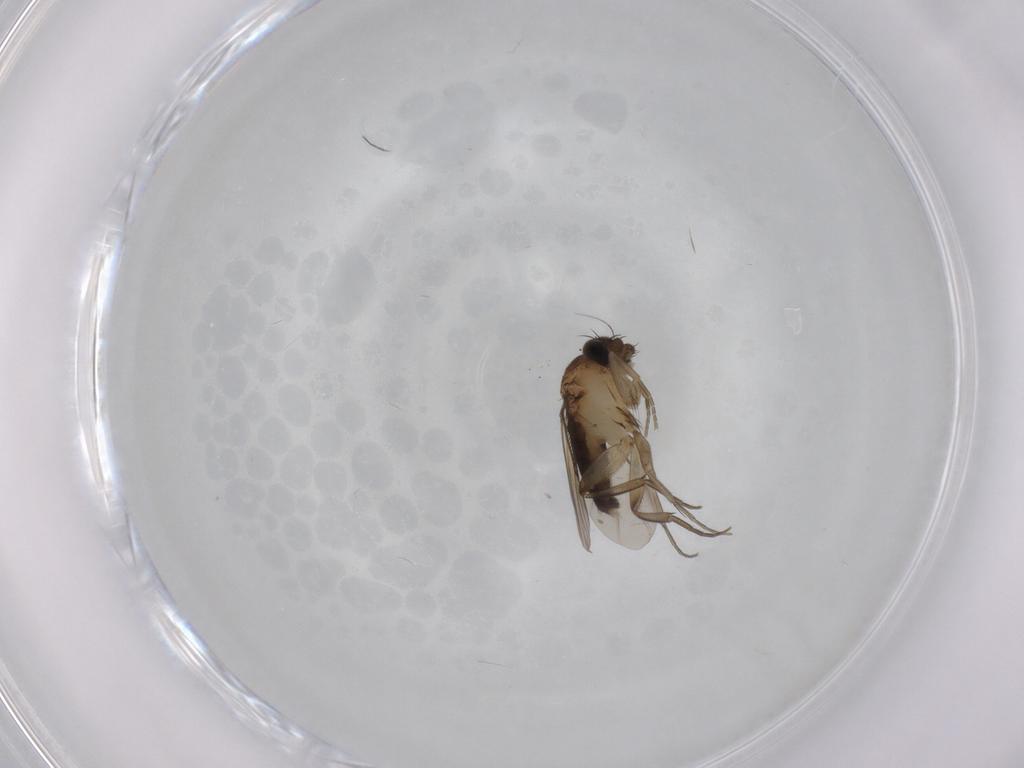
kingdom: Animalia
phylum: Arthropoda
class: Insecta
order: Diptera
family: Phoridae
